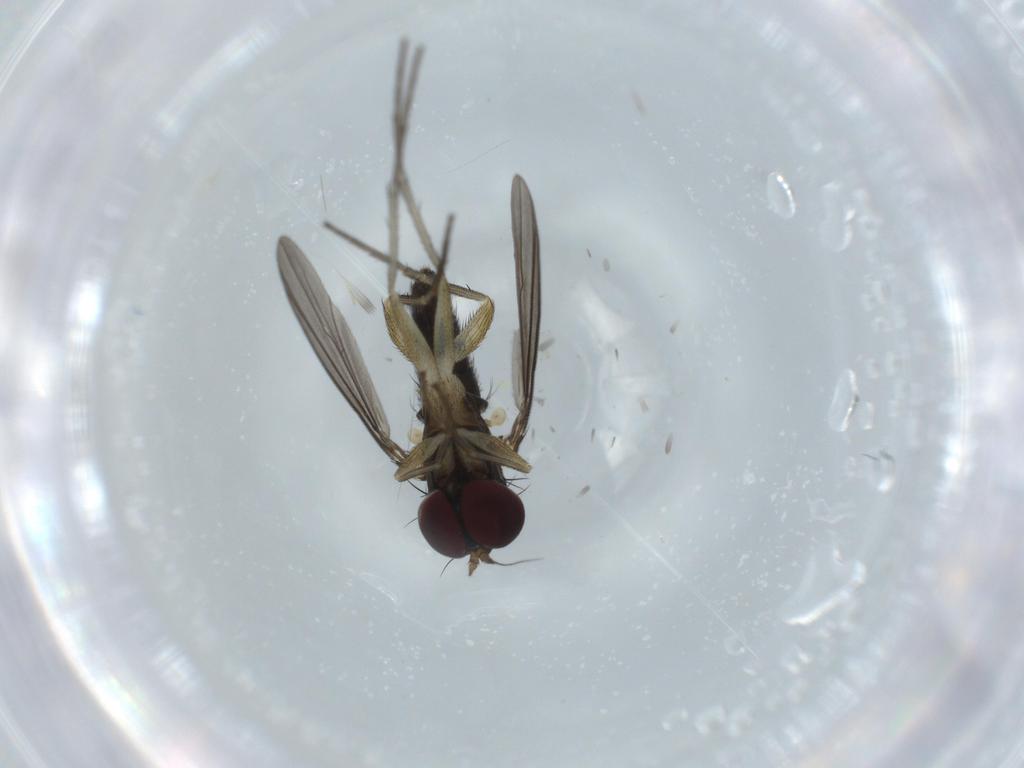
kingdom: Animalia
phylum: Arthropoda
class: Insecta
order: Diptera
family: Dolichopodidae
